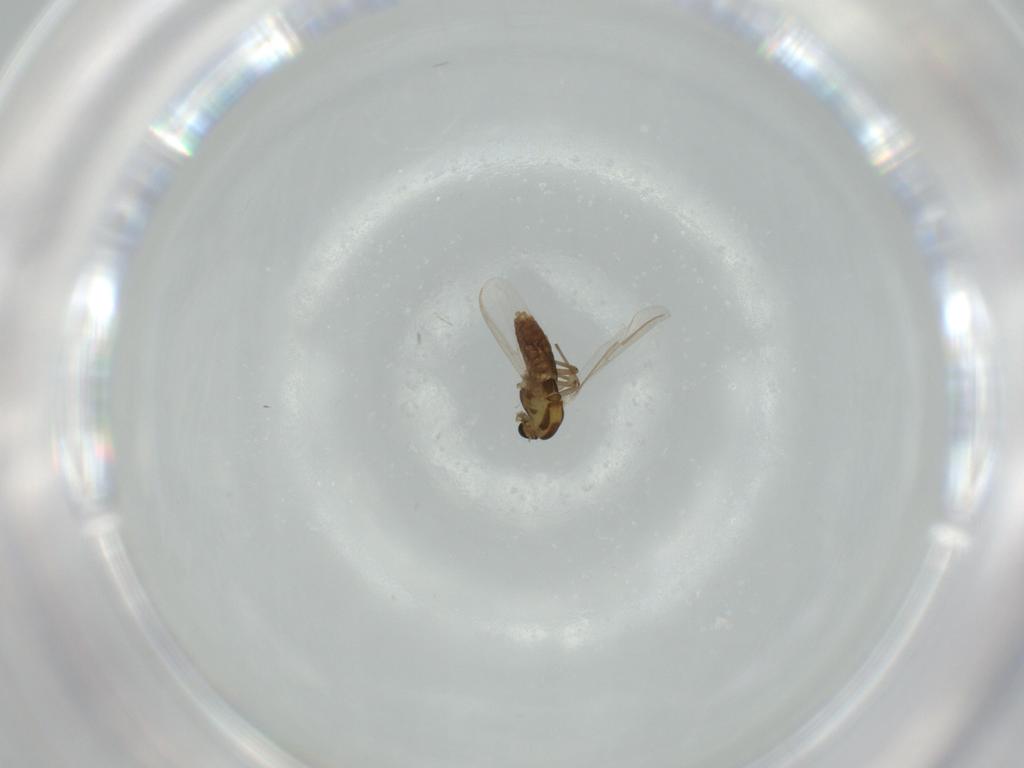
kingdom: Animalia
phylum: Arthropoda
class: Insecta
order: Diptera
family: Chironomidae
